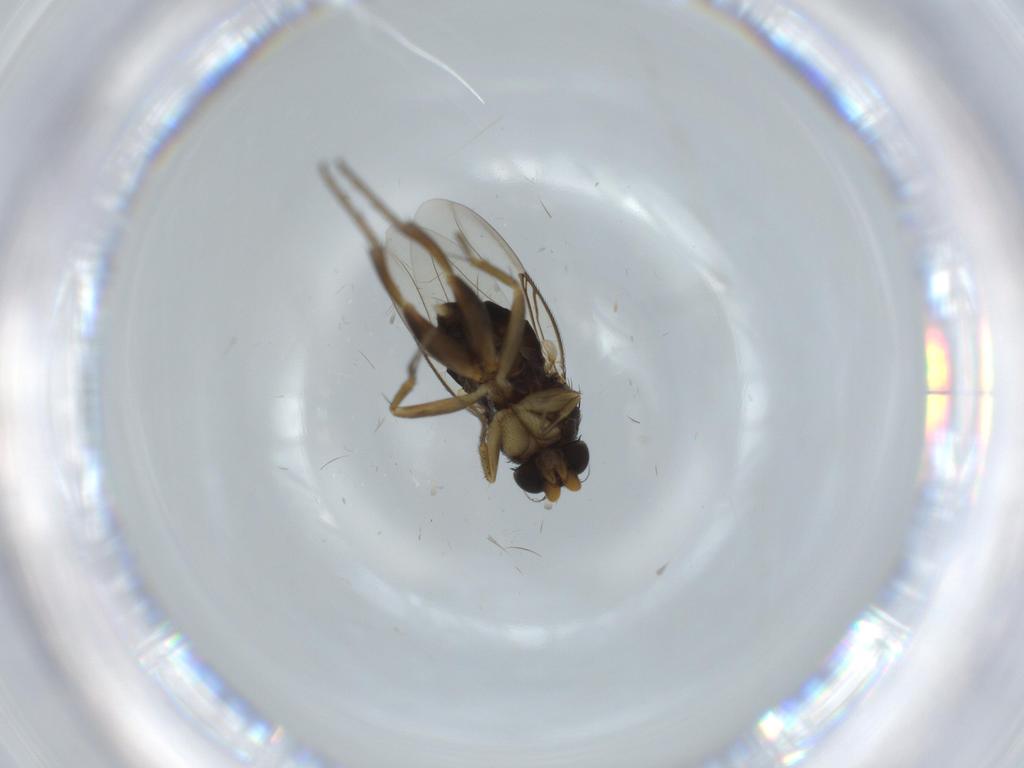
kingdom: Animalia
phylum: Arthropoda
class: Insecta
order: Diptera
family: Phoridae
